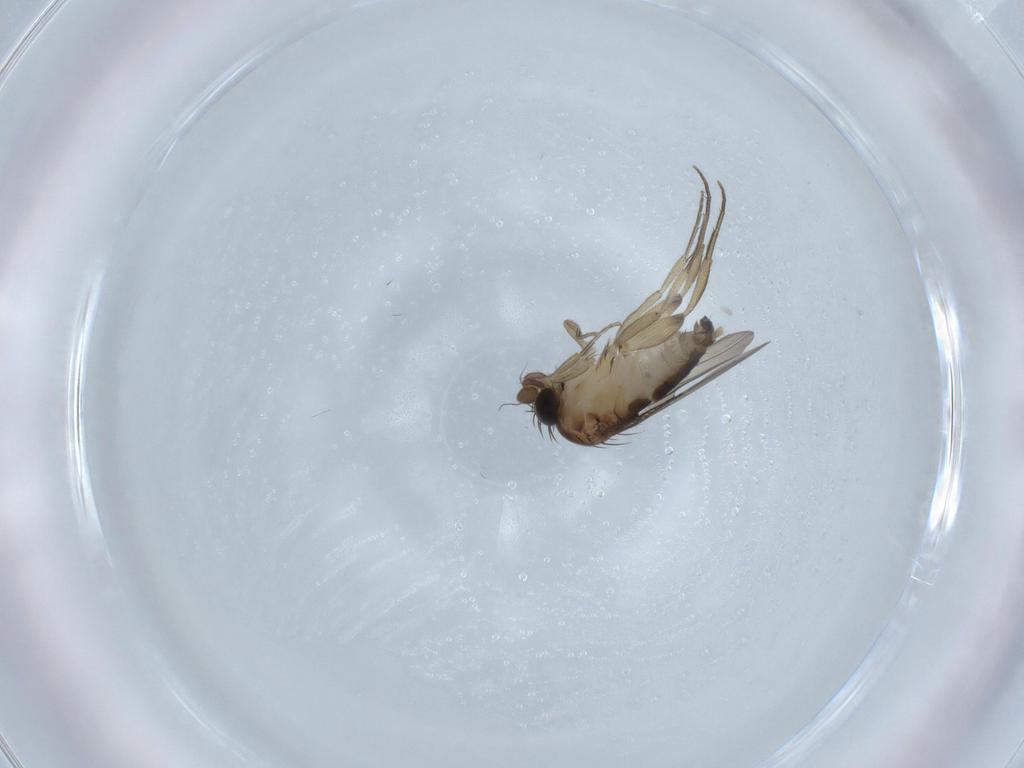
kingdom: Animalia
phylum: Arthropoda
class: Insecta
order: Diptera
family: Phoridae
